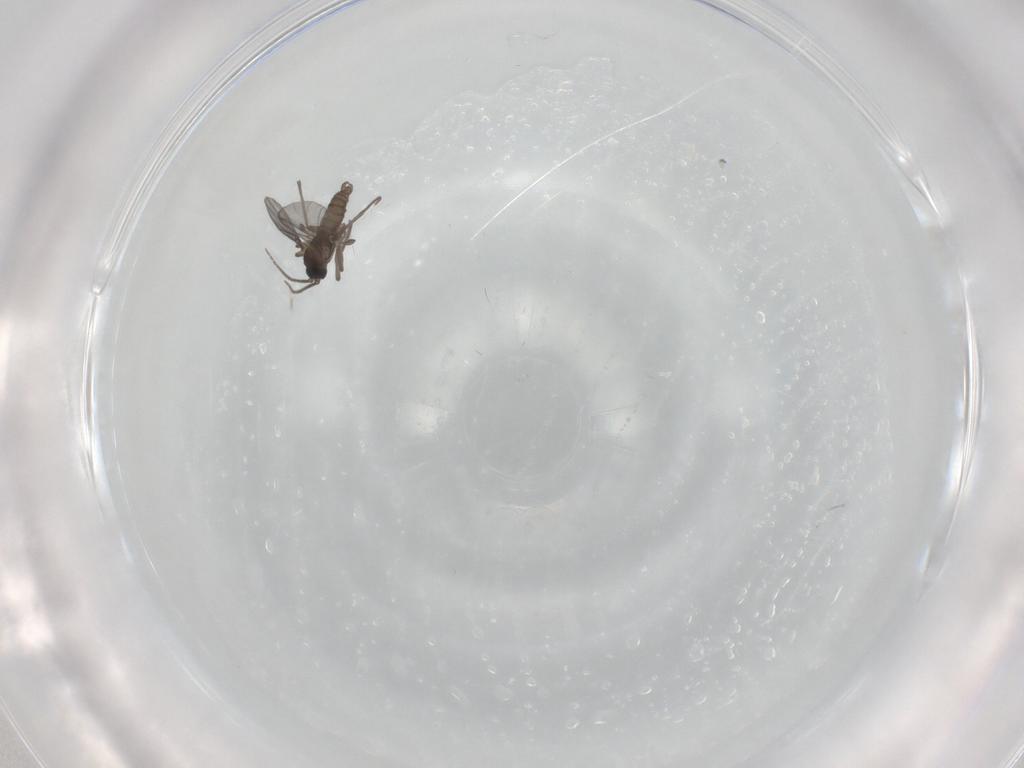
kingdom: Animalia
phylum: Arthropoda
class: Insecta
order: Diptera
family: Sciaridae
